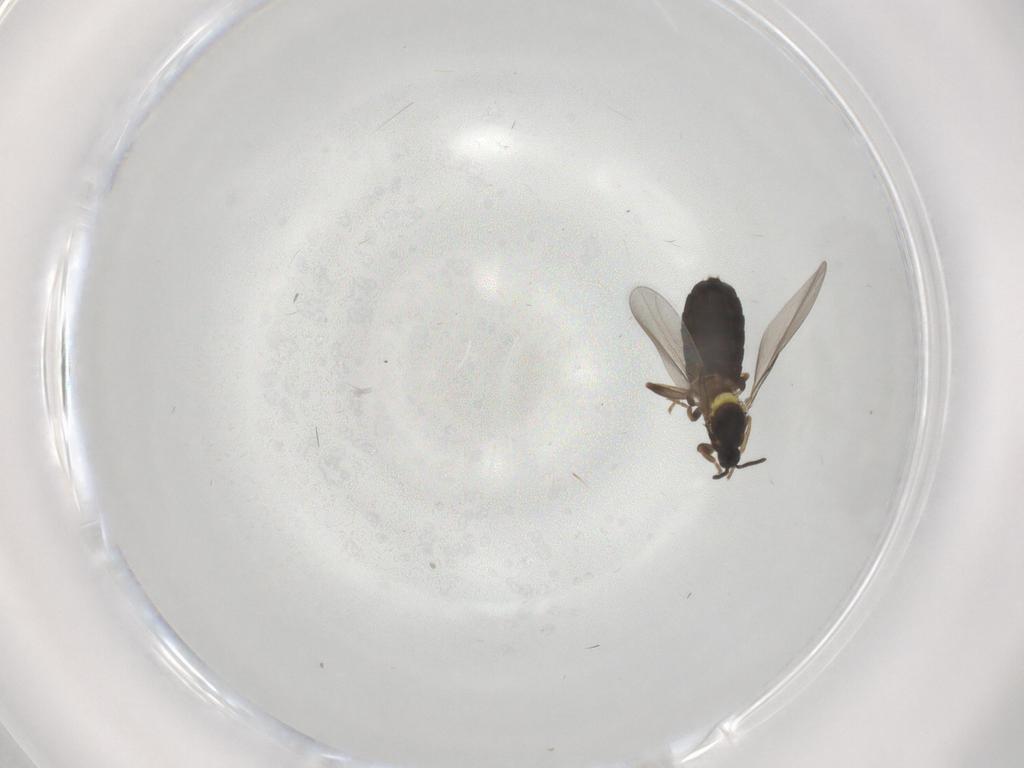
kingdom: Animalia
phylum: Arthropoda
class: Insecta
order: Diptera
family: Scatopsidae
